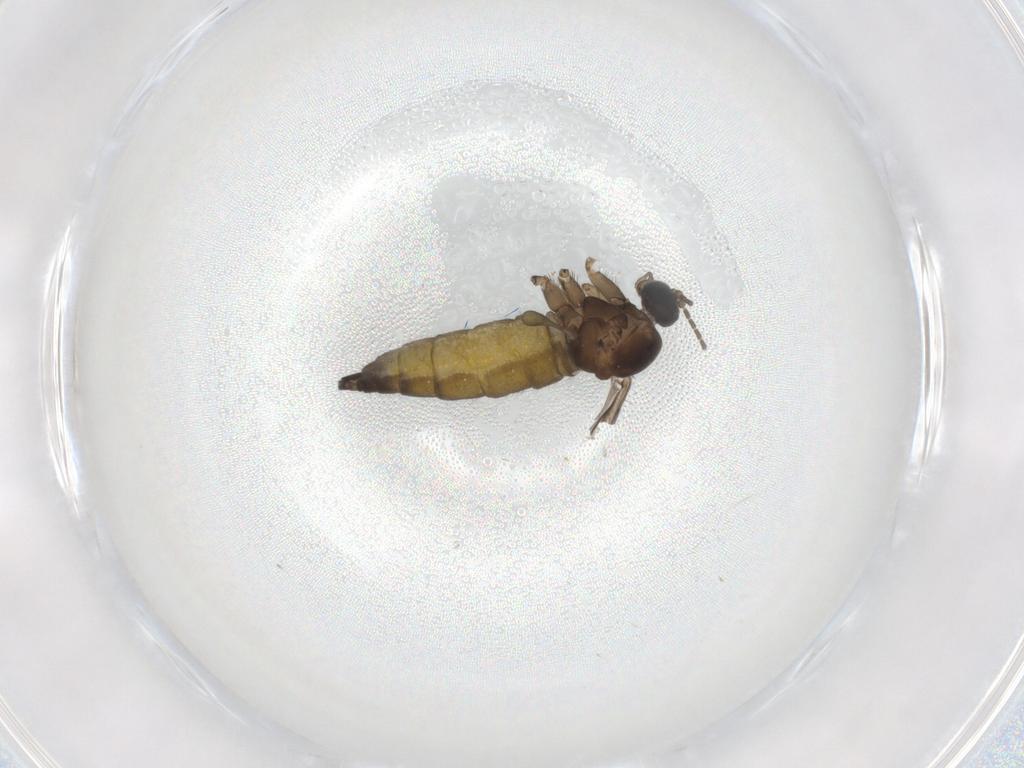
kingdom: Animalia
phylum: Arthropoda
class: Insecta
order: Diptera
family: Sciaridae
